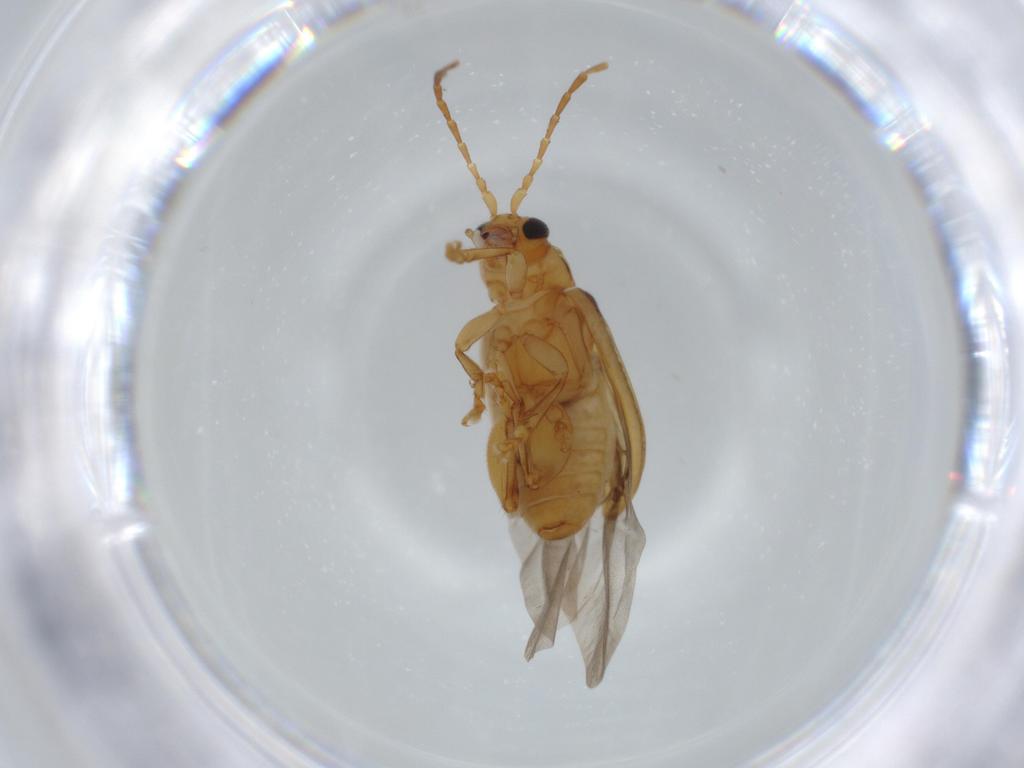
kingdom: Animalia
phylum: Arthropoda
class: Insecta
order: Coleoptera
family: Chrysomelidae
